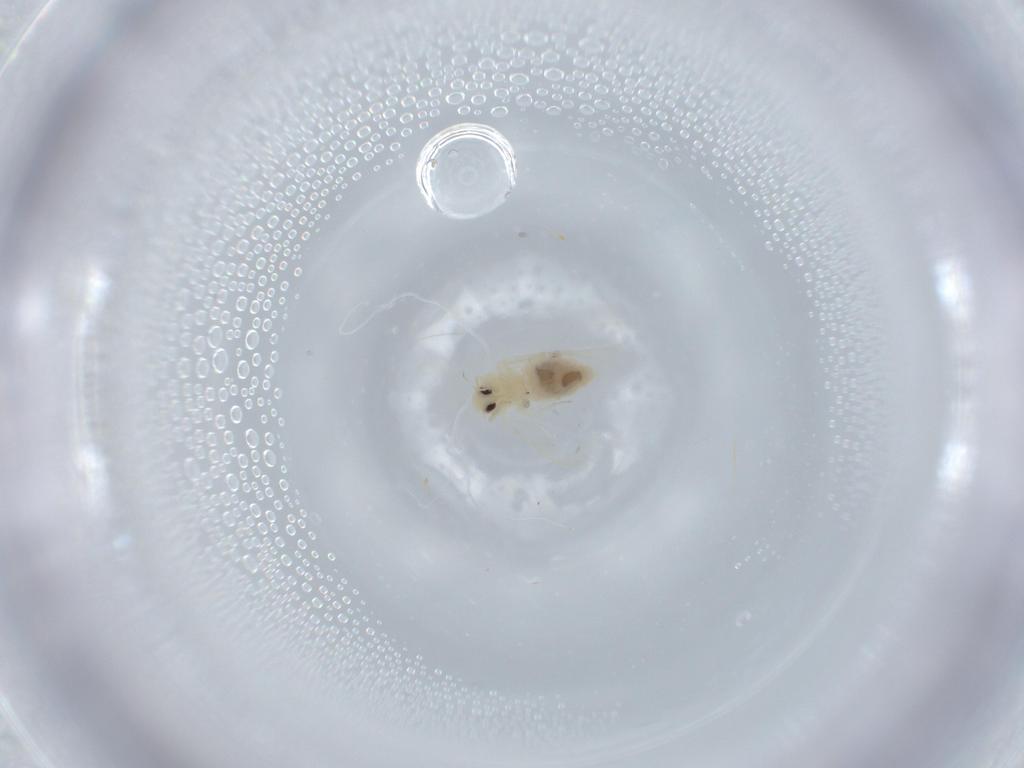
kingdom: Animalia
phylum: Arthropoda
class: Insecta
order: Hemiptera
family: Aleyrodidae
